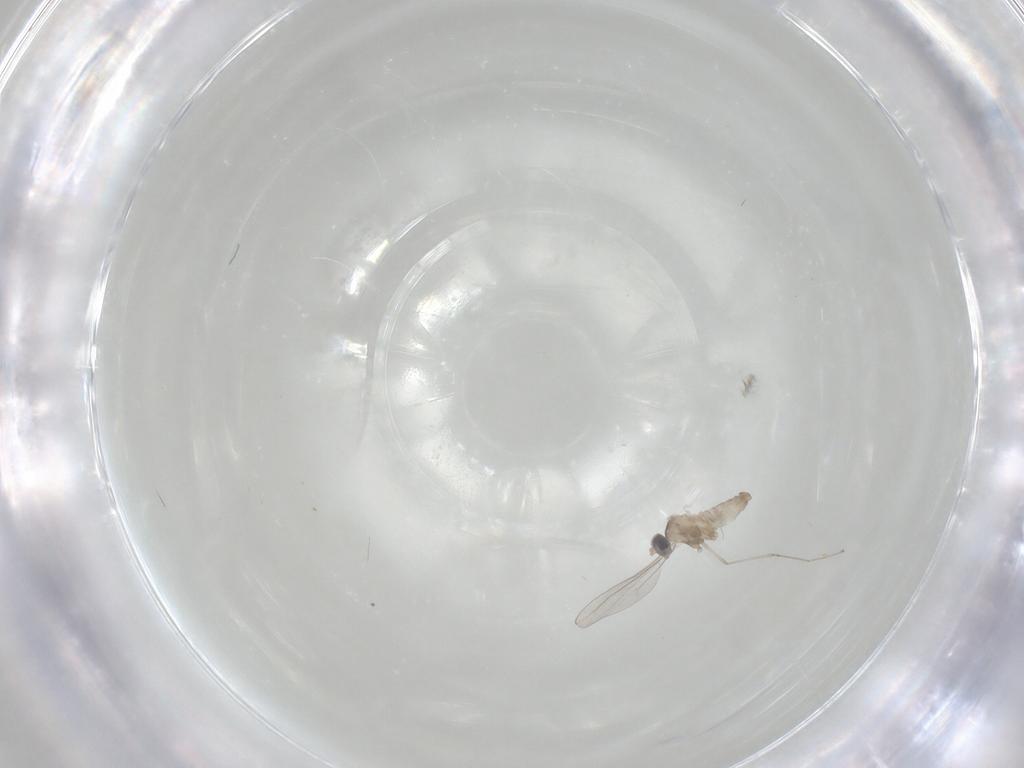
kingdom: Animalia
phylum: Arthropoda
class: Insecta
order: Diptera
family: Cecidomyiidae
